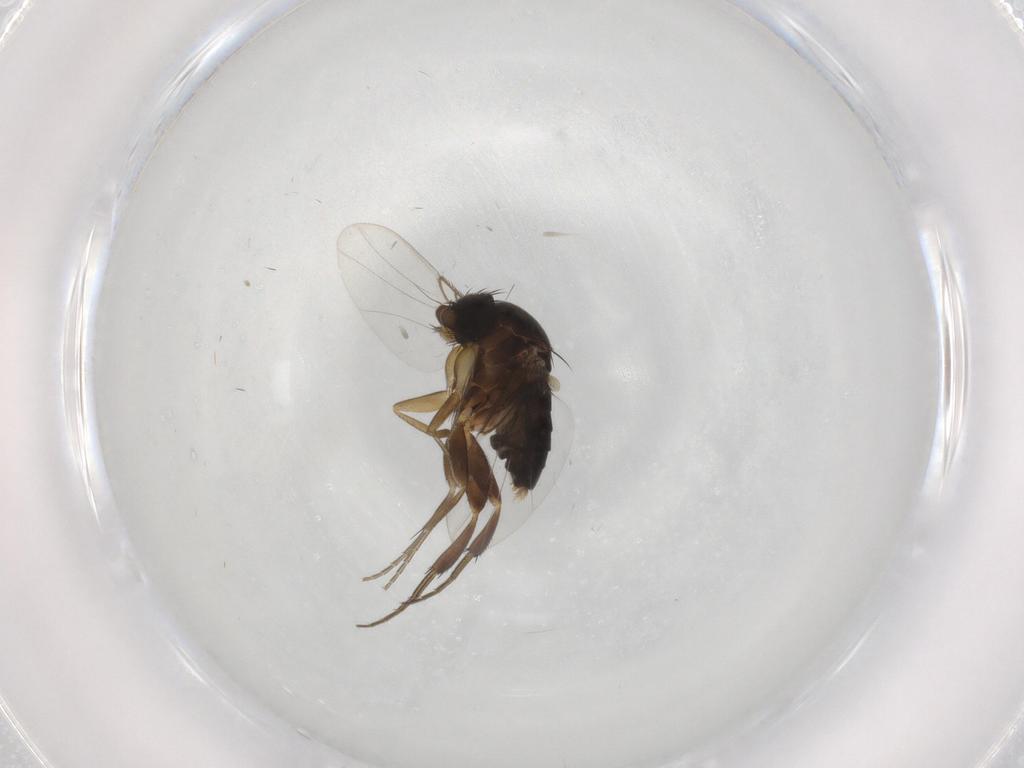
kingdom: Animalia
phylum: Arthropoda
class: Insecta
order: Diptera
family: Phoridae
